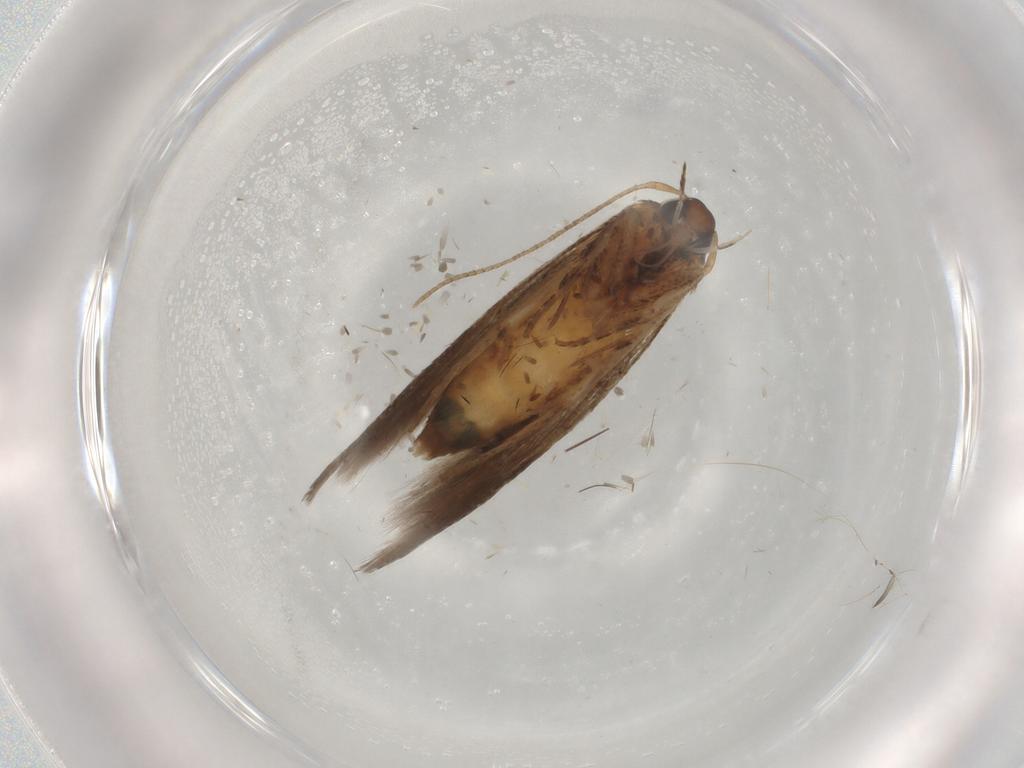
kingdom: Animalia
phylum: Arthropoda
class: Insecta
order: Lepidoptera
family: Cosmopterigidae
